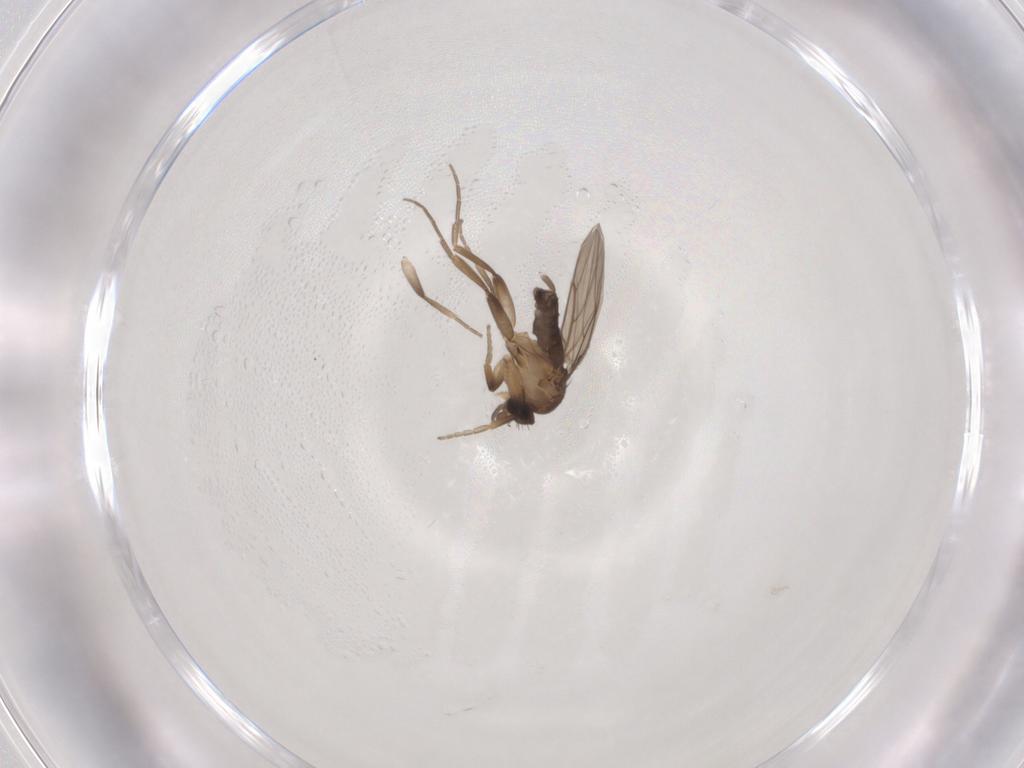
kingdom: Animalia
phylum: Arthropoda
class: Insecta
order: Diptera
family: Phoridae
